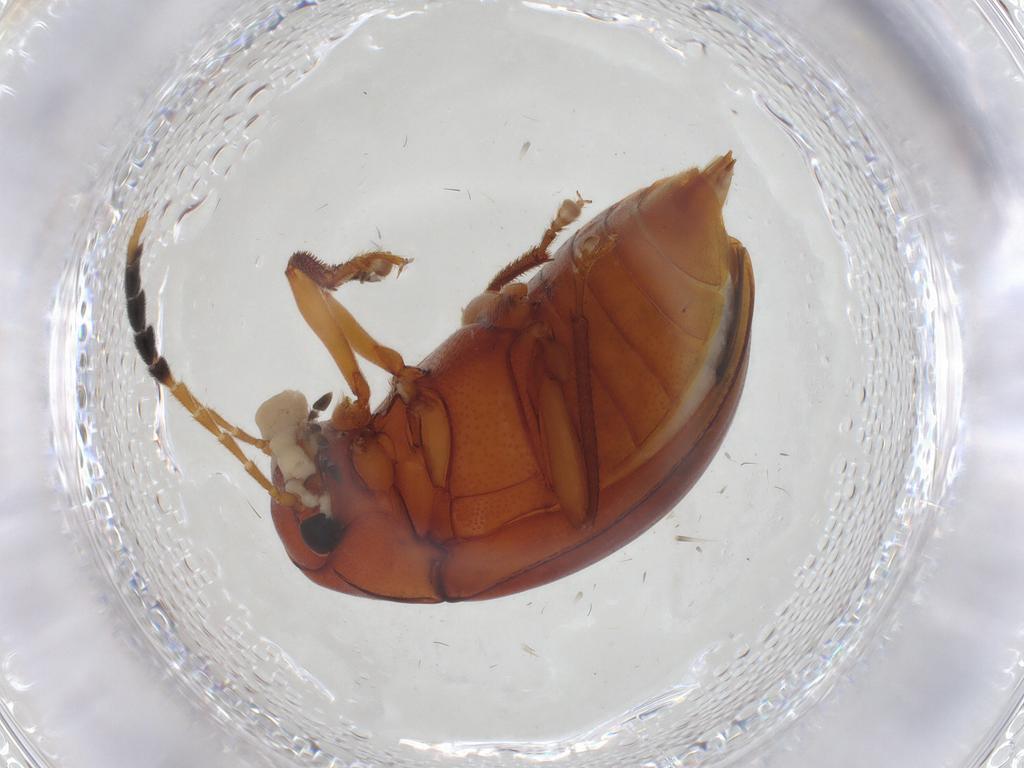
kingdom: Animalia
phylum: Arthropoda
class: Insecta
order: Coleoptera
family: Ptilodactylidae
